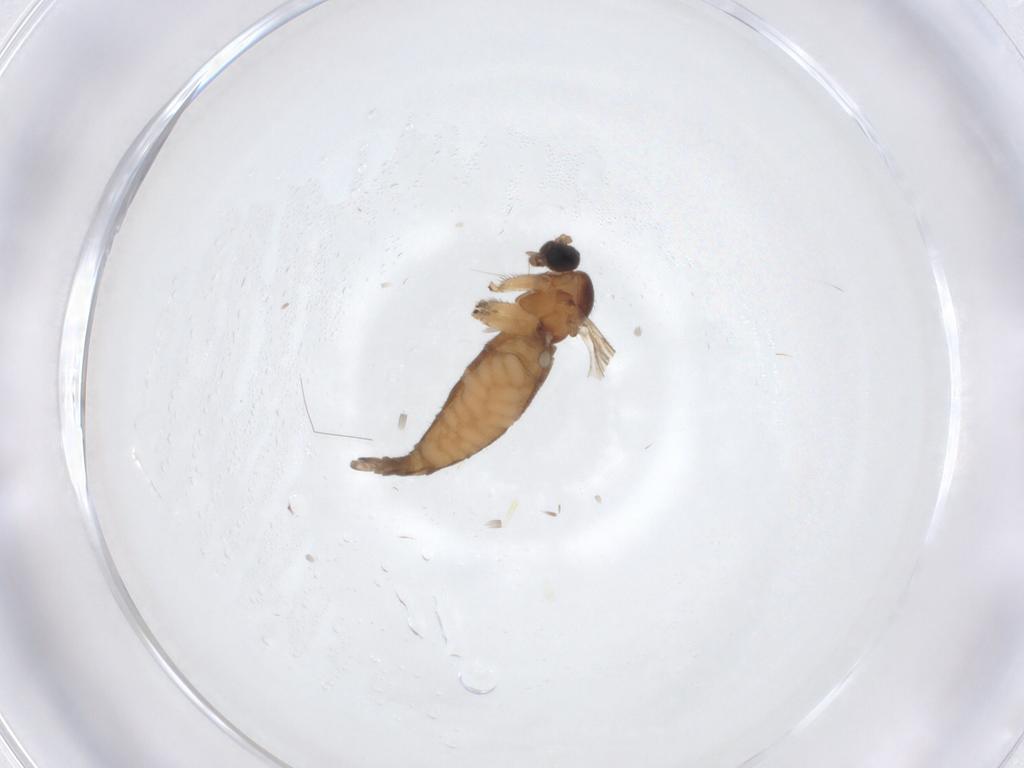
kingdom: Animalia
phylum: Arthropoda
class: Insecta
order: Diptera
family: Sciaridae
